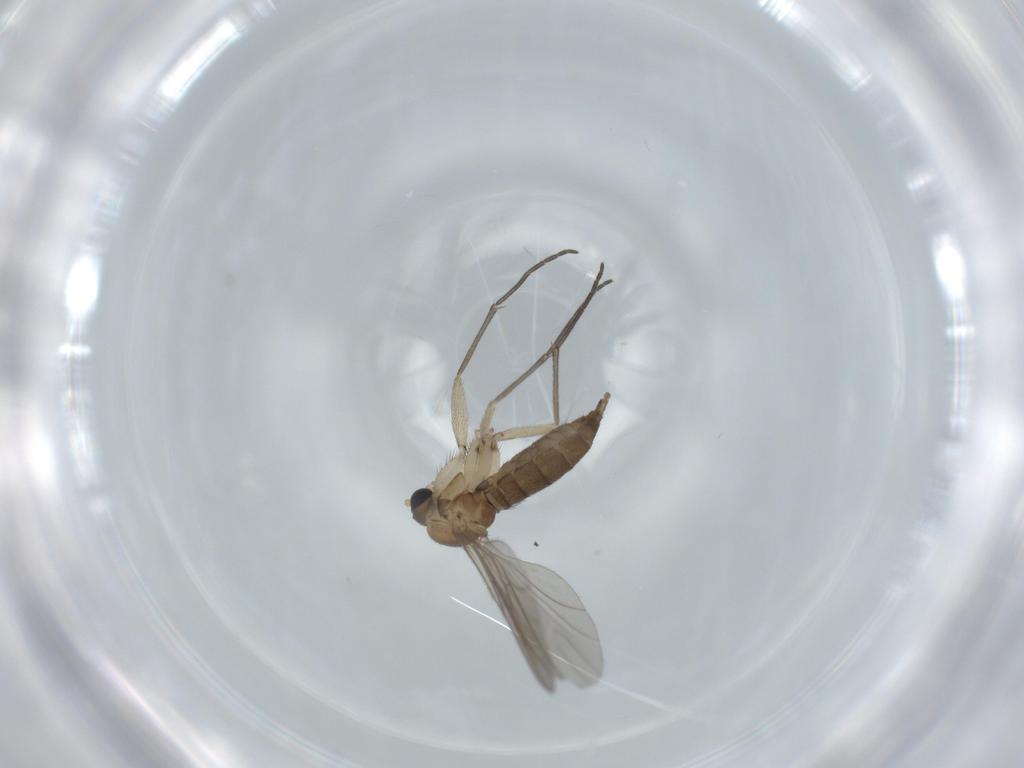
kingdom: Animalia
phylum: Arthropoda
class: Insecta
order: Diptera
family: Sciaridae
